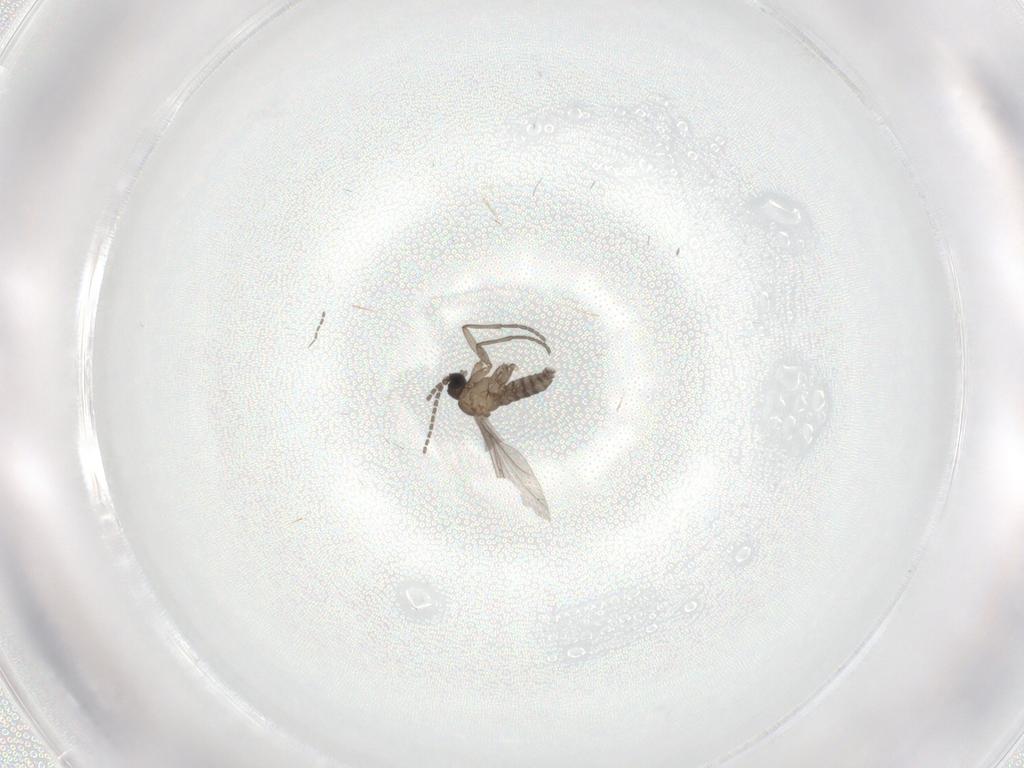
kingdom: Animalia
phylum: Arthropoda
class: Insecta
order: Diptera
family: Sciaridae
